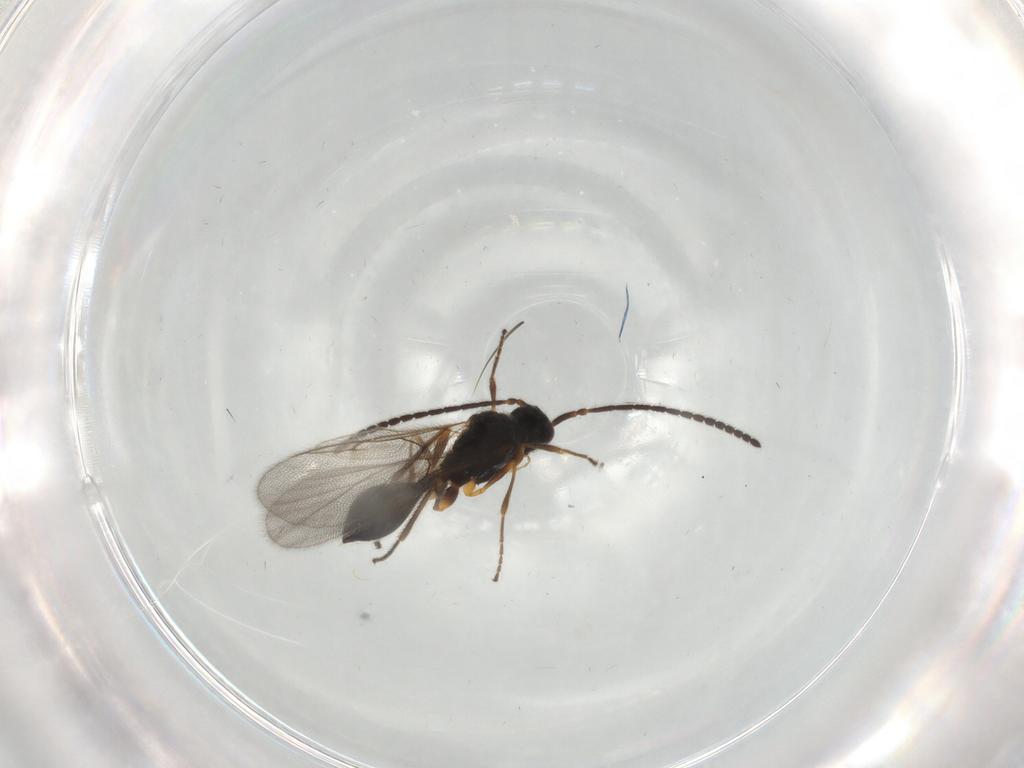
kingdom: Animalia
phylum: Arthropoda
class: Insecta
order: Hymenoptera
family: Diapriidae
